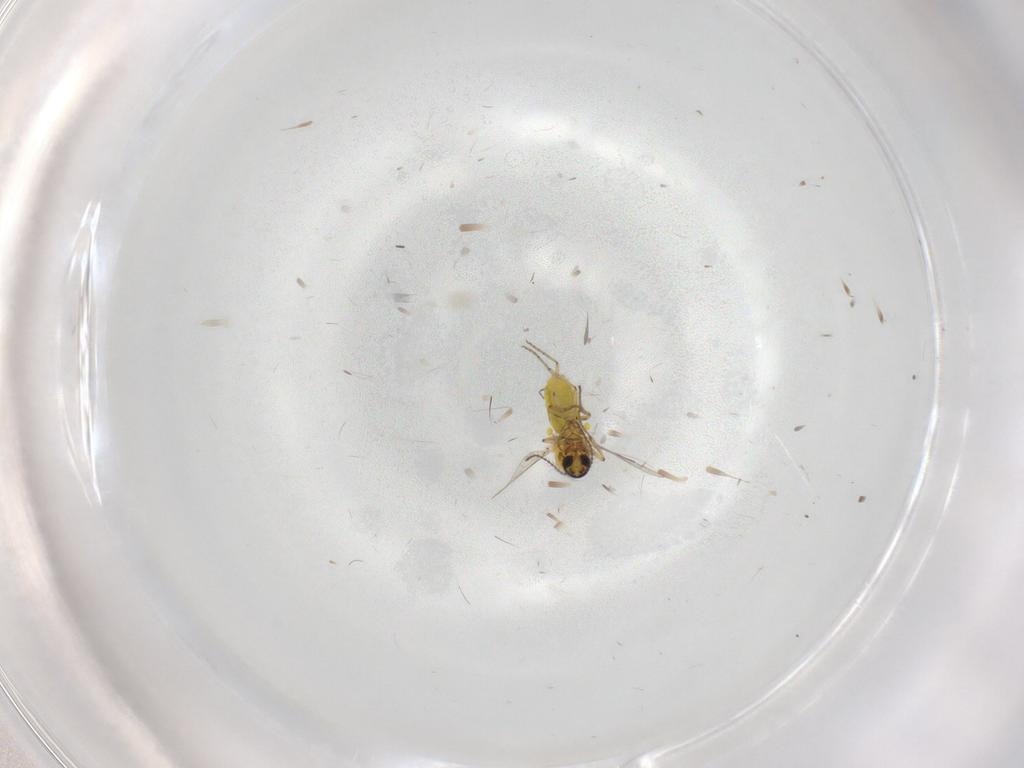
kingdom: Animalia
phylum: Arthropoda
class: Insecta
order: Diptera
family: Ceratopogonidae
